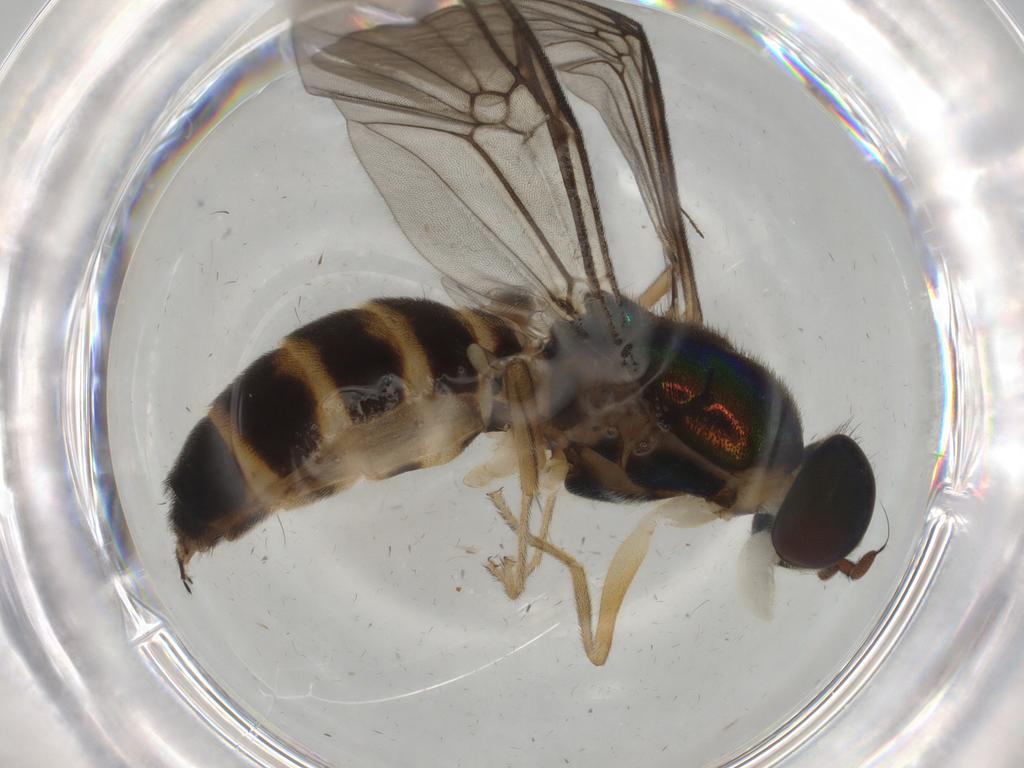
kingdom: Animalia
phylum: Arthropoda
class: Insecta
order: Diptera
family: Dolichopodidae
